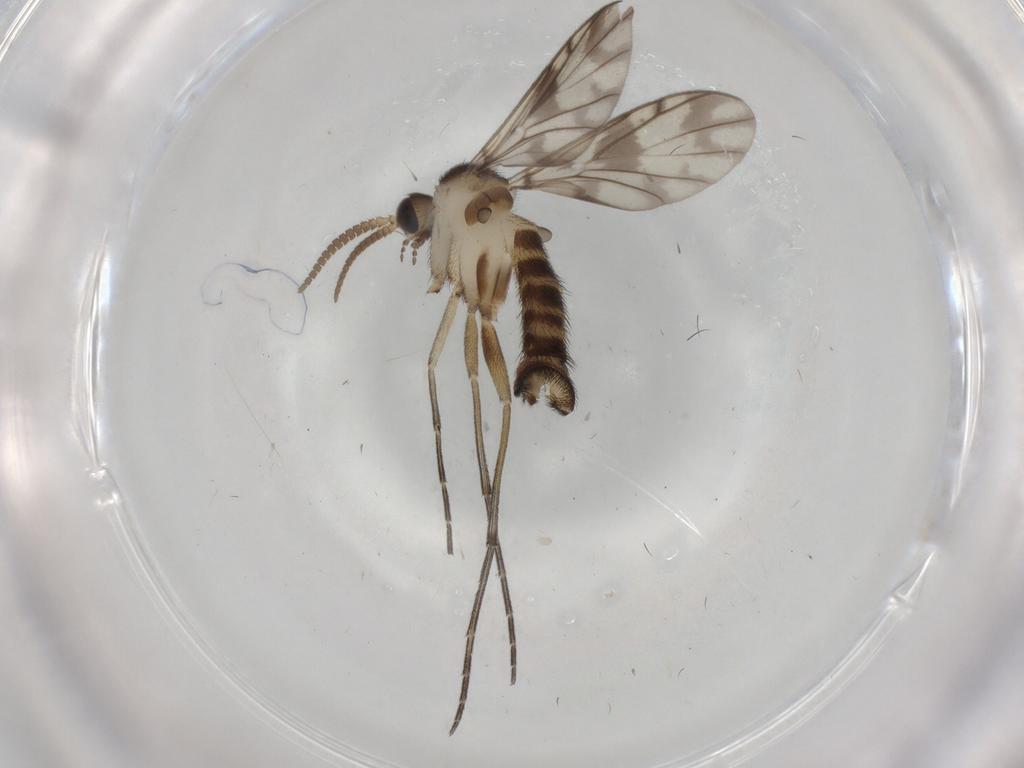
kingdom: Animalia
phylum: Arthropoda
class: Insecta
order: Diptera
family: Keroplatidae
